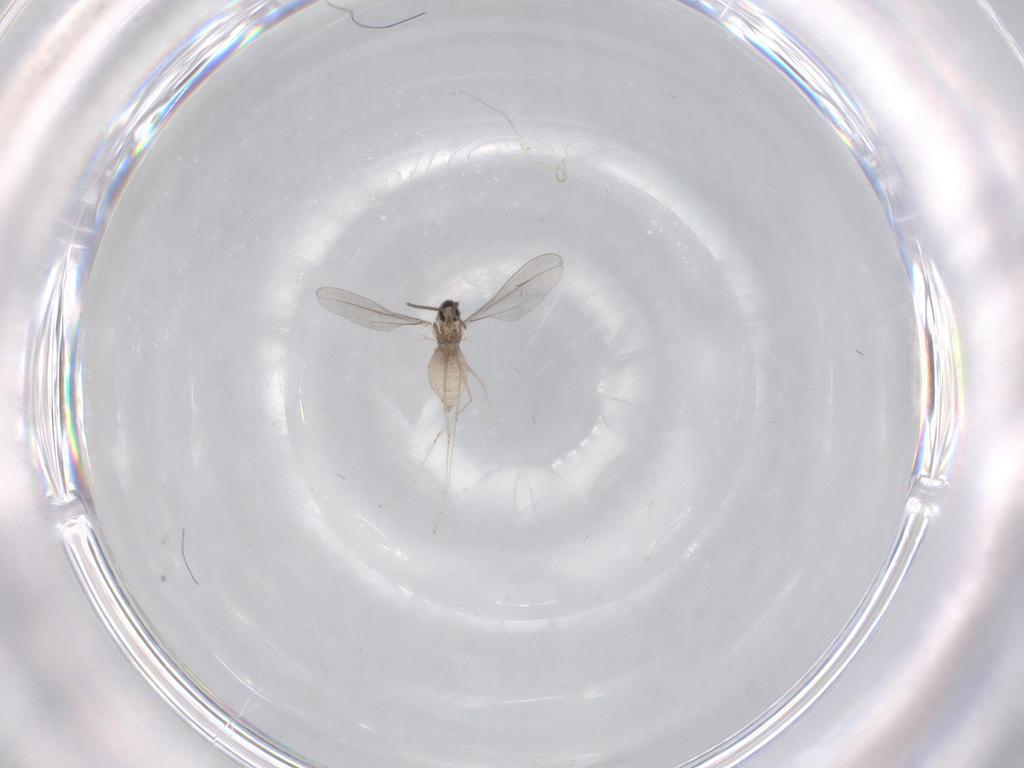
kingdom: Animalia
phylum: Arthropoda
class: Insecta
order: Diptera
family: Cecidomyiidae
